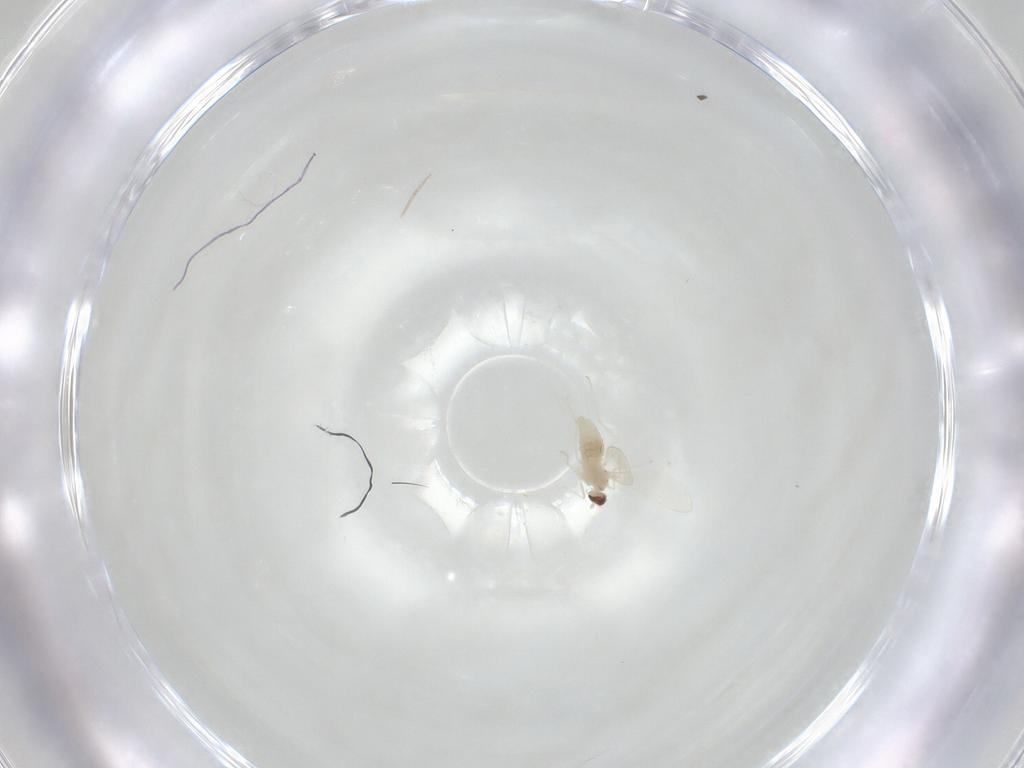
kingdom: Animalia
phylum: Arthropoda
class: Insecta
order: Diptera
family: Cecidomyiidae
